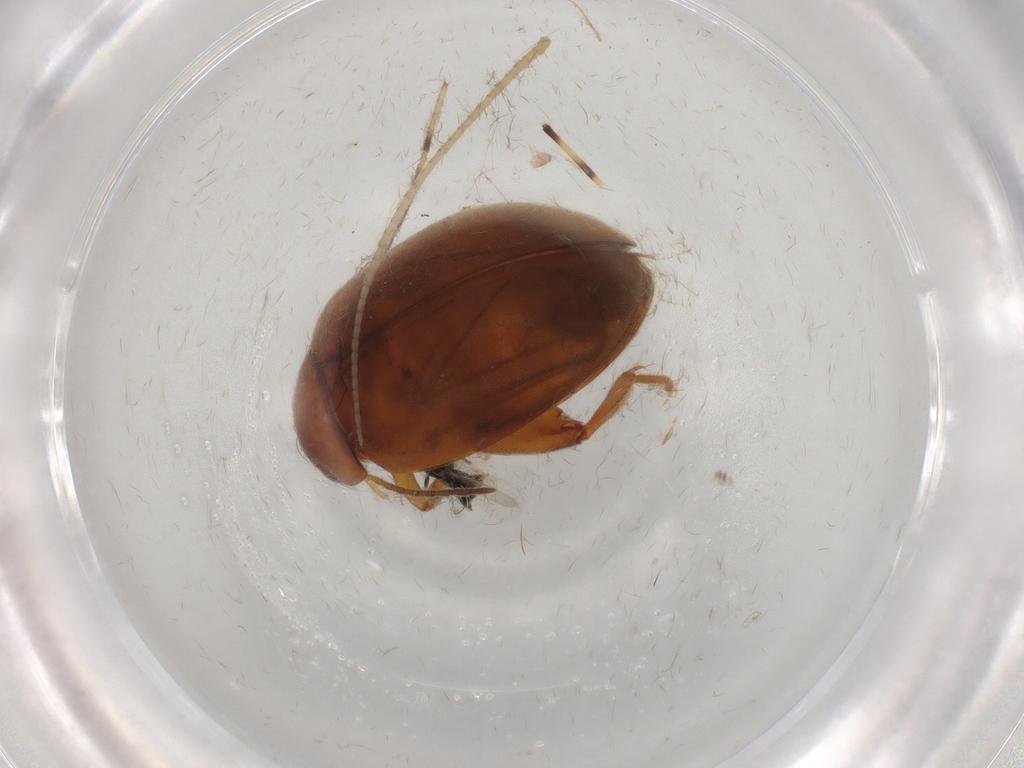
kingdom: Animalia
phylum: Arthropoda
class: Insecta
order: Coleoptera
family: Scirtidae
